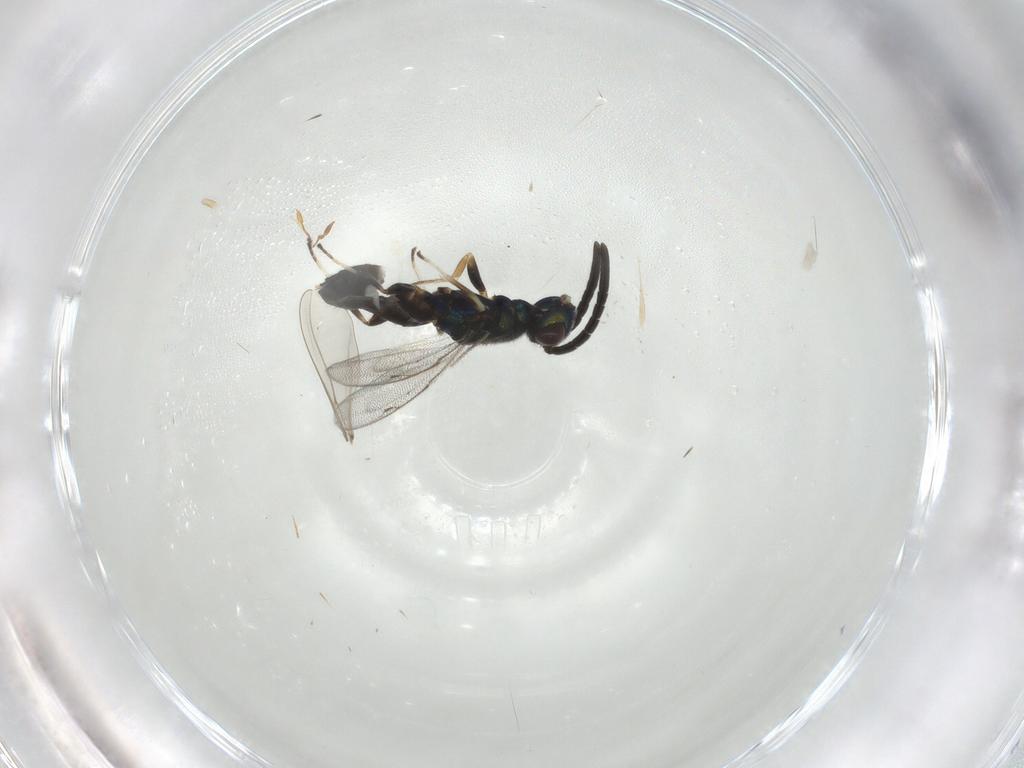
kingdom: Animalia
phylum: Arthropoda
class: Insecta
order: Hymenoptera
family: Eupelmidae
